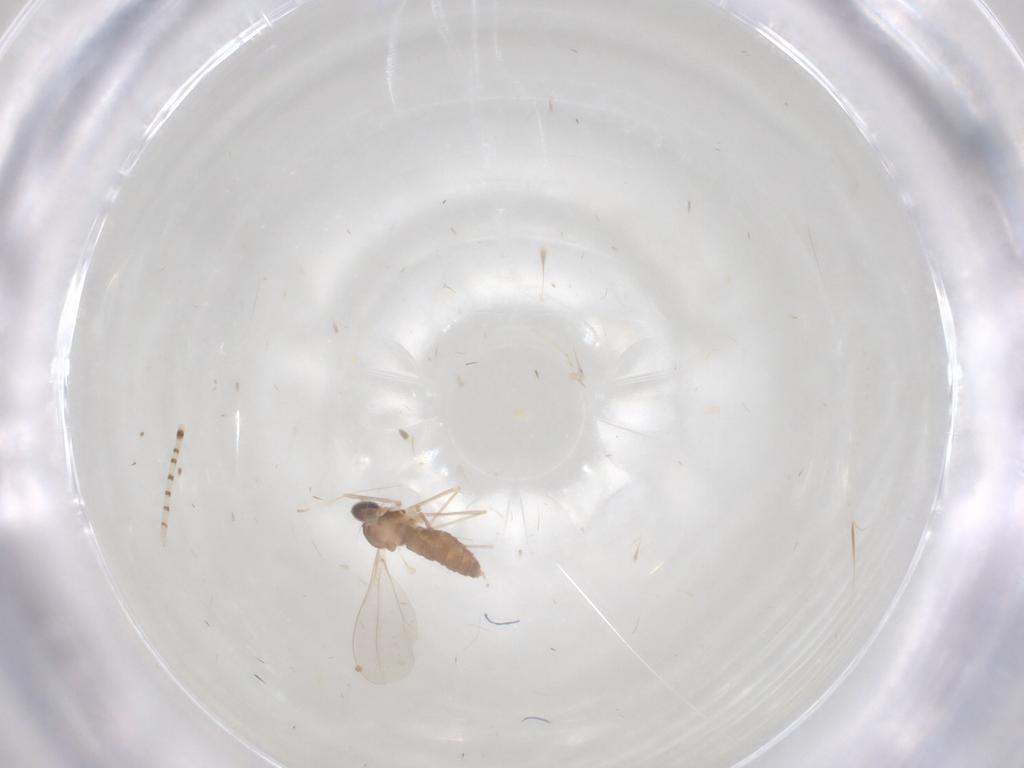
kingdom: Animalia
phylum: Arthropoda
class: Insecta
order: Diptera
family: Chaoboridae
